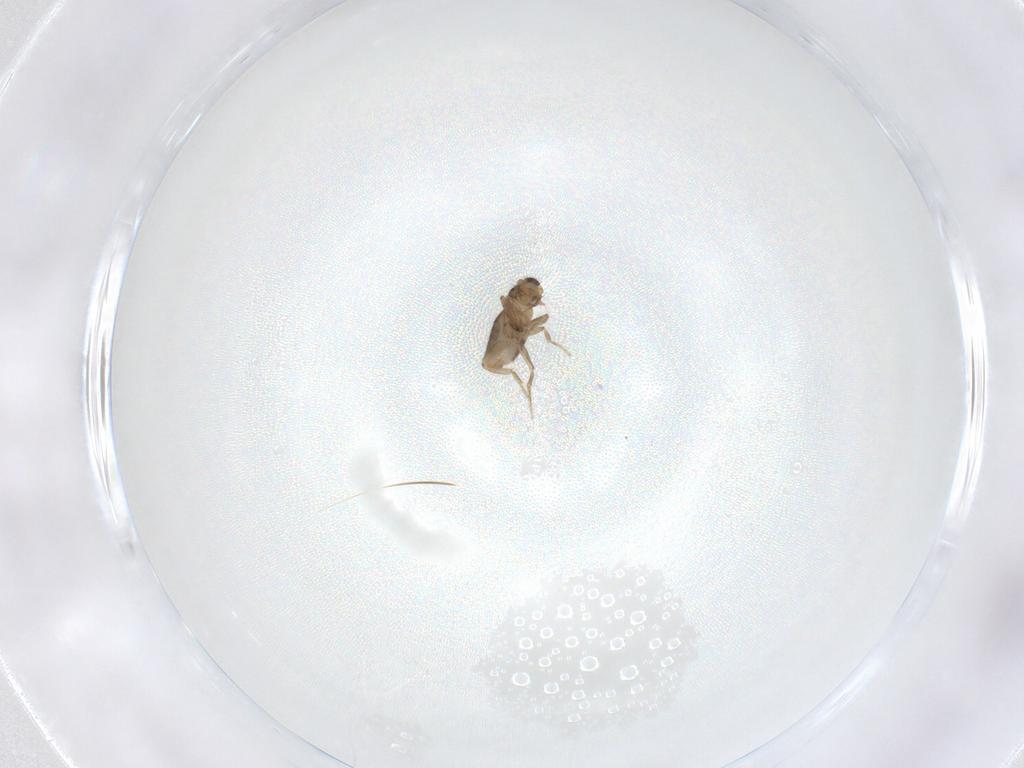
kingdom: Animalia
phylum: Arthropoda
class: Insecta
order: Diptera
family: Phoridae
